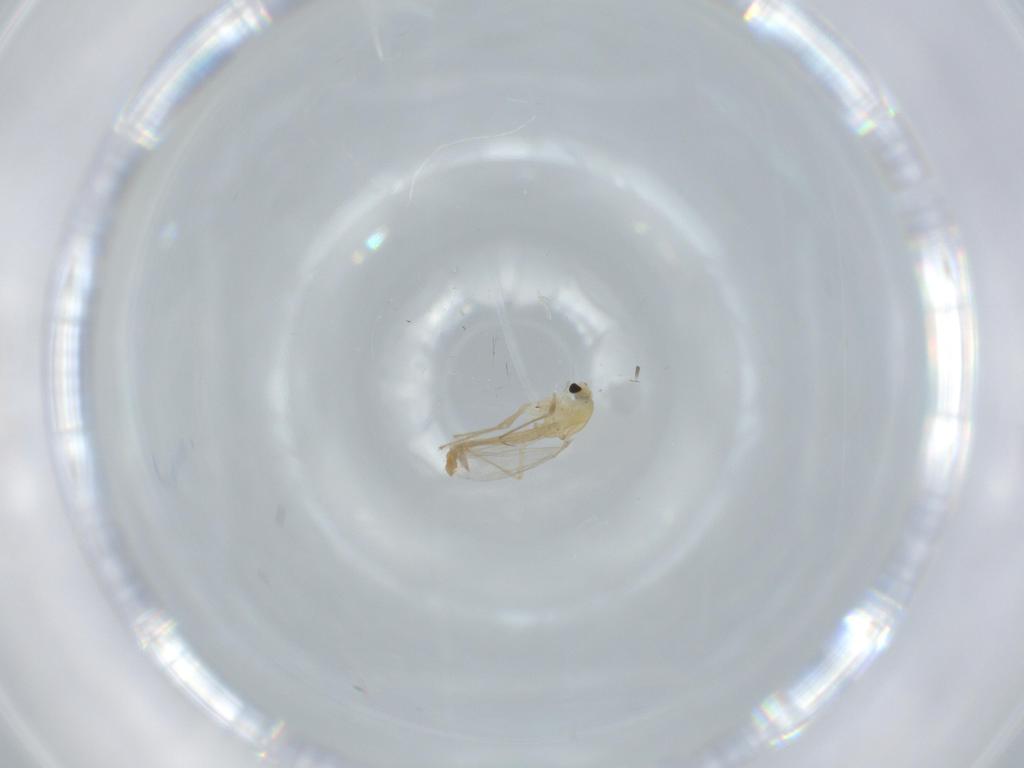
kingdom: Animalia
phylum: Arthropoda
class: Insecta
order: Diptera
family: Chironomidae
